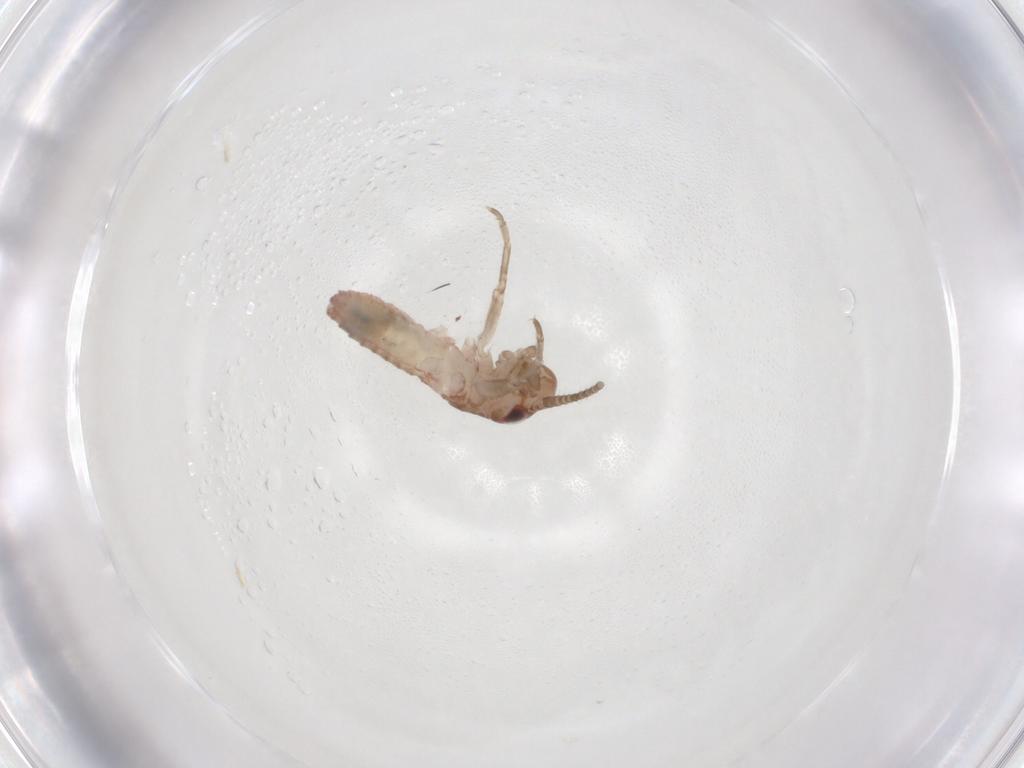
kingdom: Animalia
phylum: Arthropoda
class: Insecta
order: Orthoptera
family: Mogoplistidae
